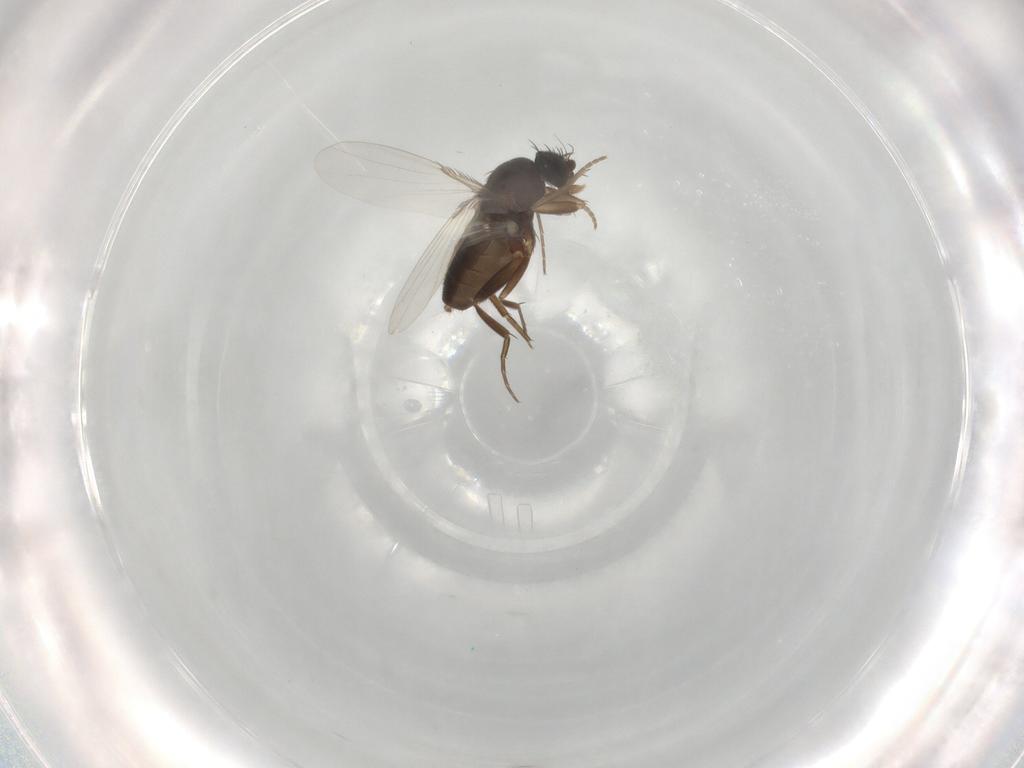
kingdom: Animalia
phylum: Arthropoda
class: Insecta
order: Diptera
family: Phoridae
